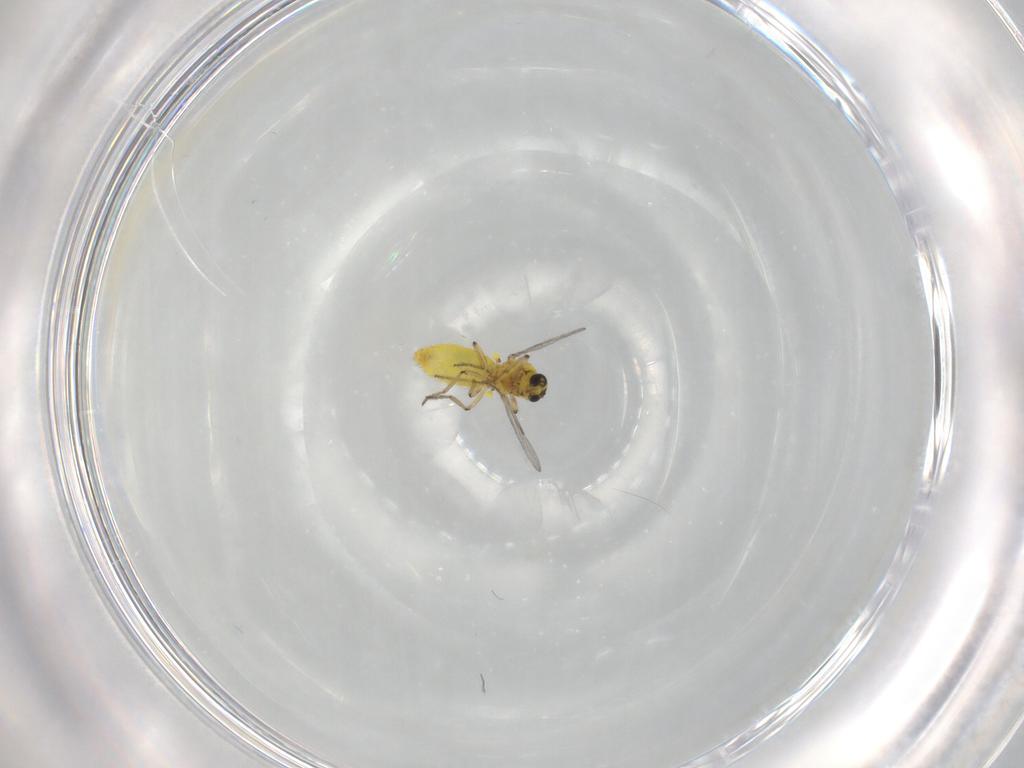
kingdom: Animalia
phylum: Arthropoda
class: Insecta
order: Diptera
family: Ceratopogonidae
